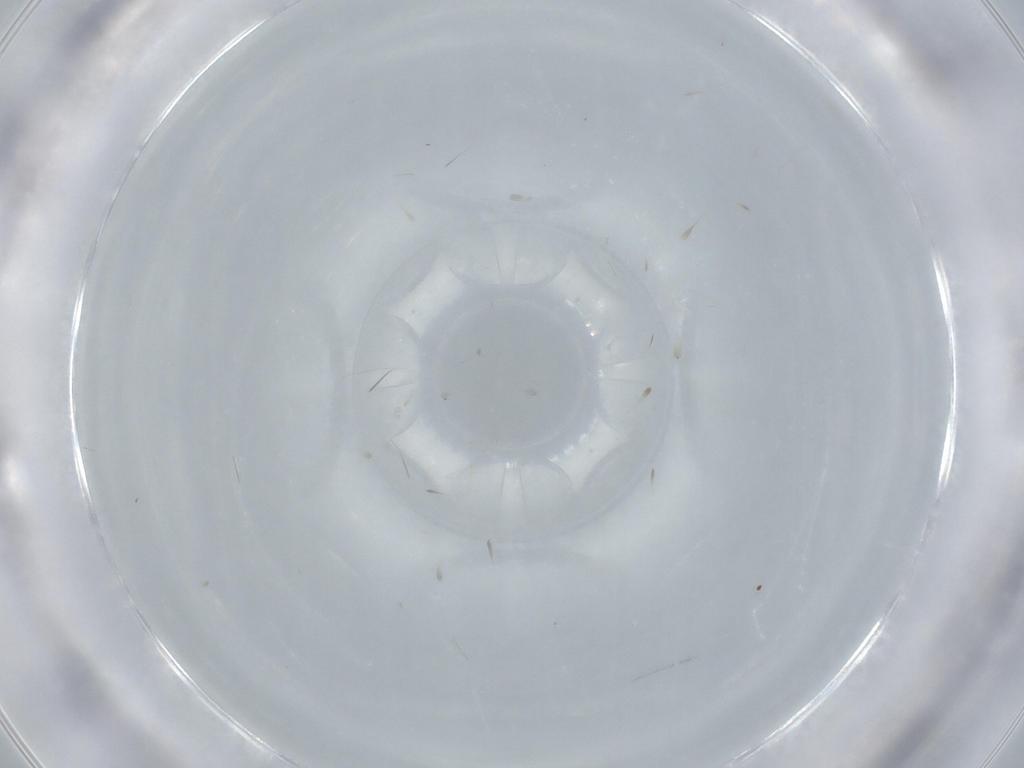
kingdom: Animalia
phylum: Arthropoda
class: Insecta
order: Diptera
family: Cecidomyiidae
